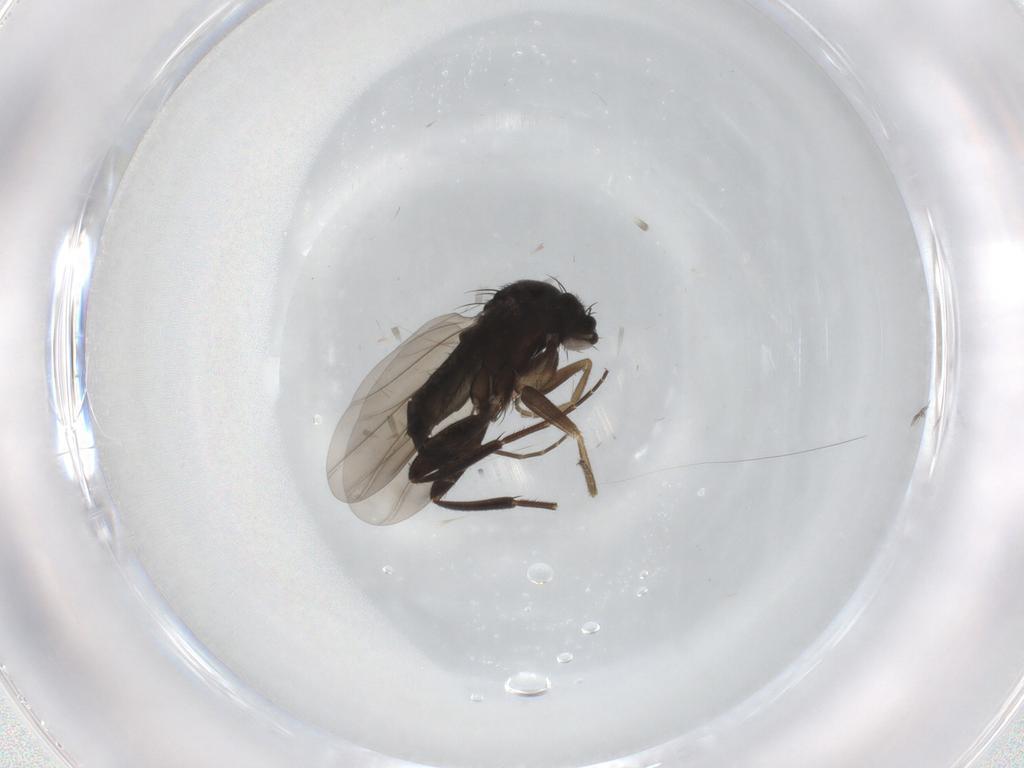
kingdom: Animalia
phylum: Arthropoda
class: Insecta
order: Diptera
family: Phoridae
